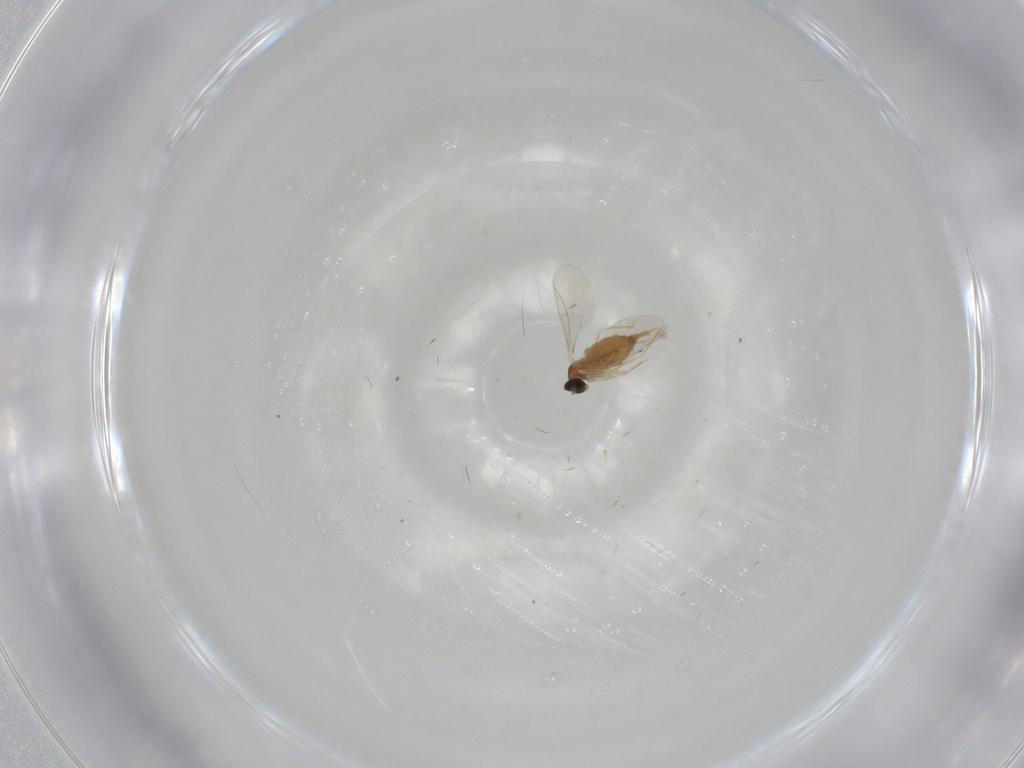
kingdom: Animalia
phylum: Arthropoda
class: Insecta
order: Diptera
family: Cecidomyiidae
